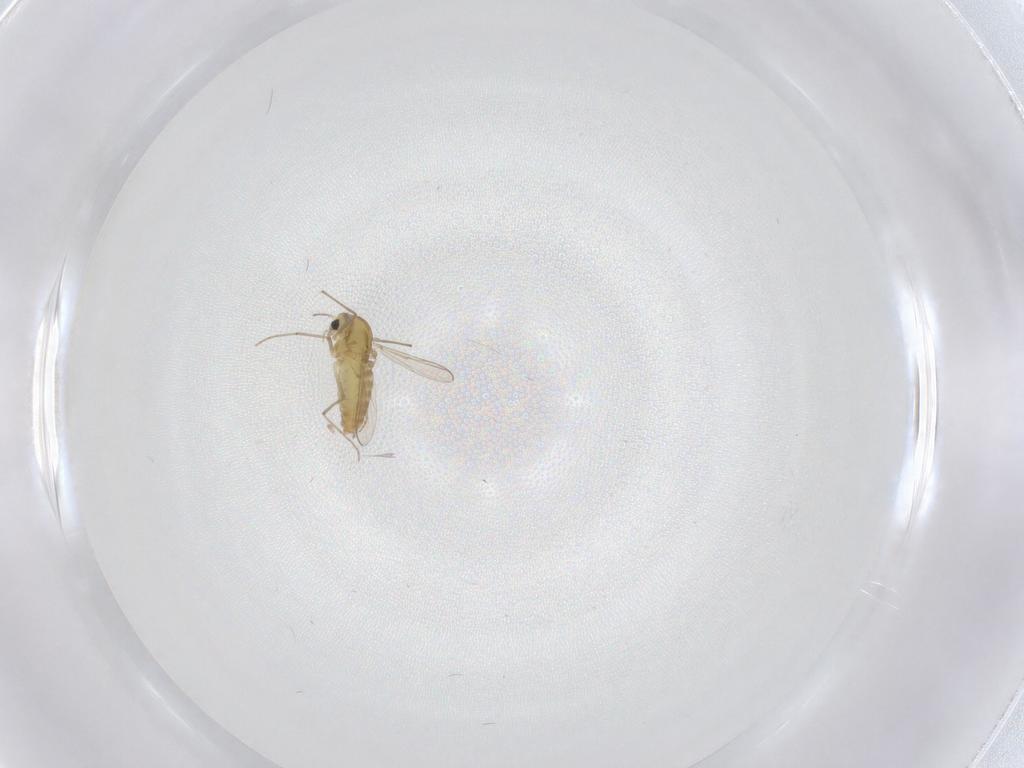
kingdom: Animalia
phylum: Arthropoda
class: Insecta
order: Diptera
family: Chironomidae
